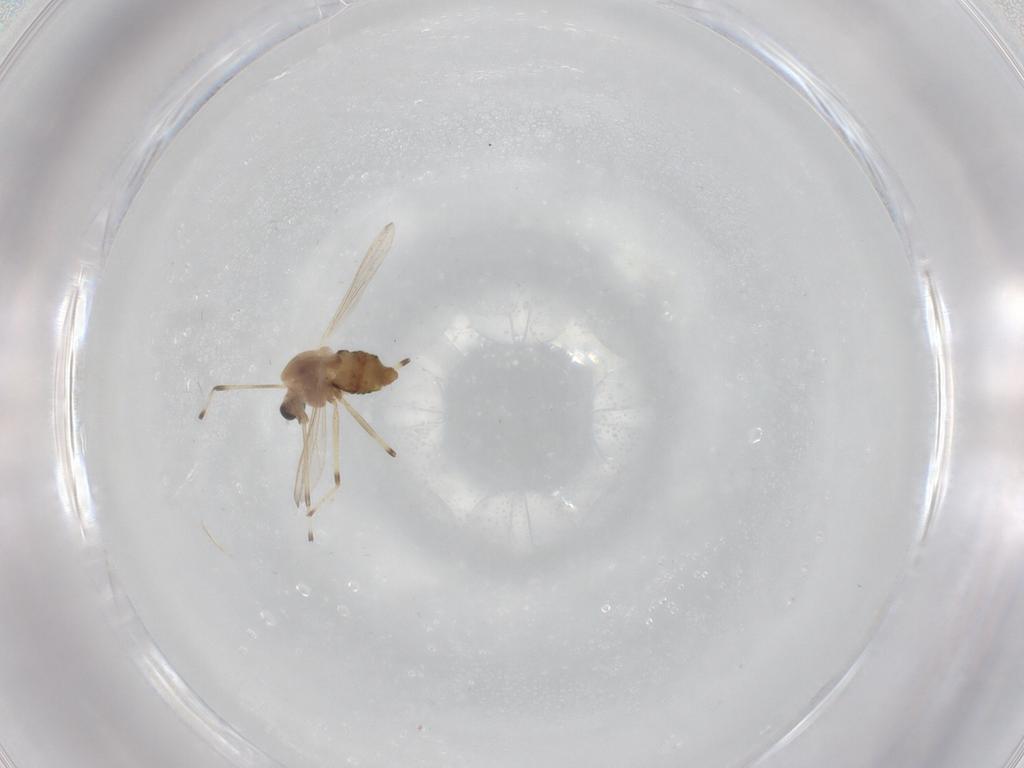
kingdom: Animalia
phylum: Arthropoda
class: Insecta
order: Diptera
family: Chironomidae
